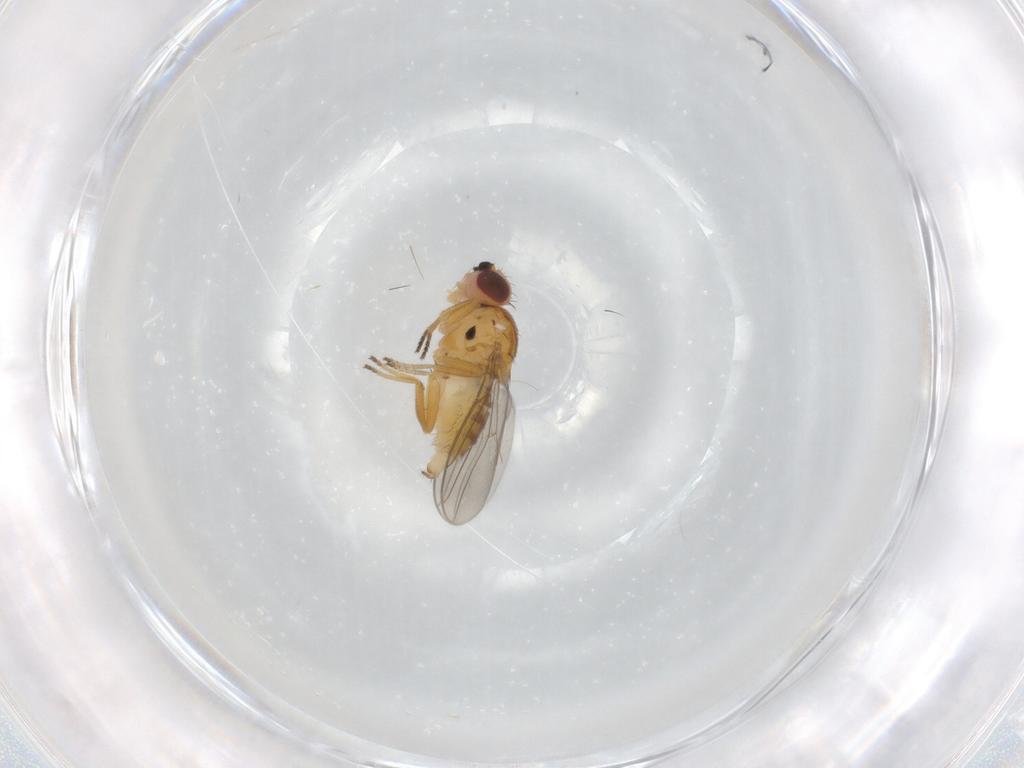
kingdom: Animalia
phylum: Arthropoda
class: Insecta
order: Diptera
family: Chloropidae
